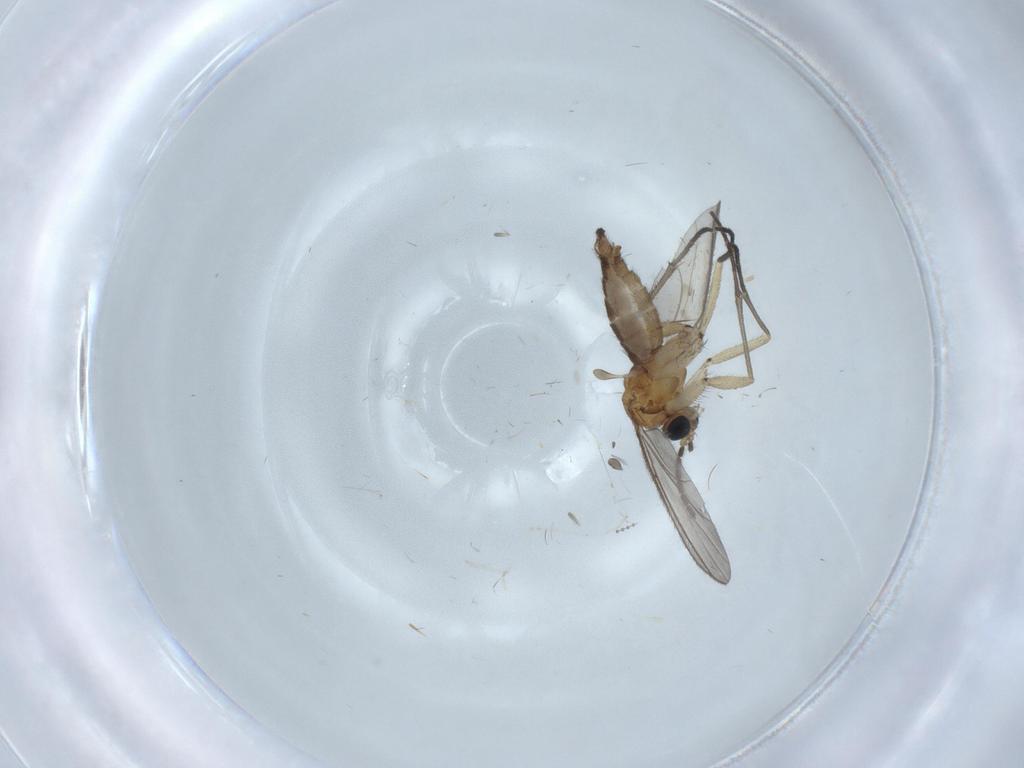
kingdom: Animalia
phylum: Arthropoda
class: Insecta
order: Diptera
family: Sciaridae
